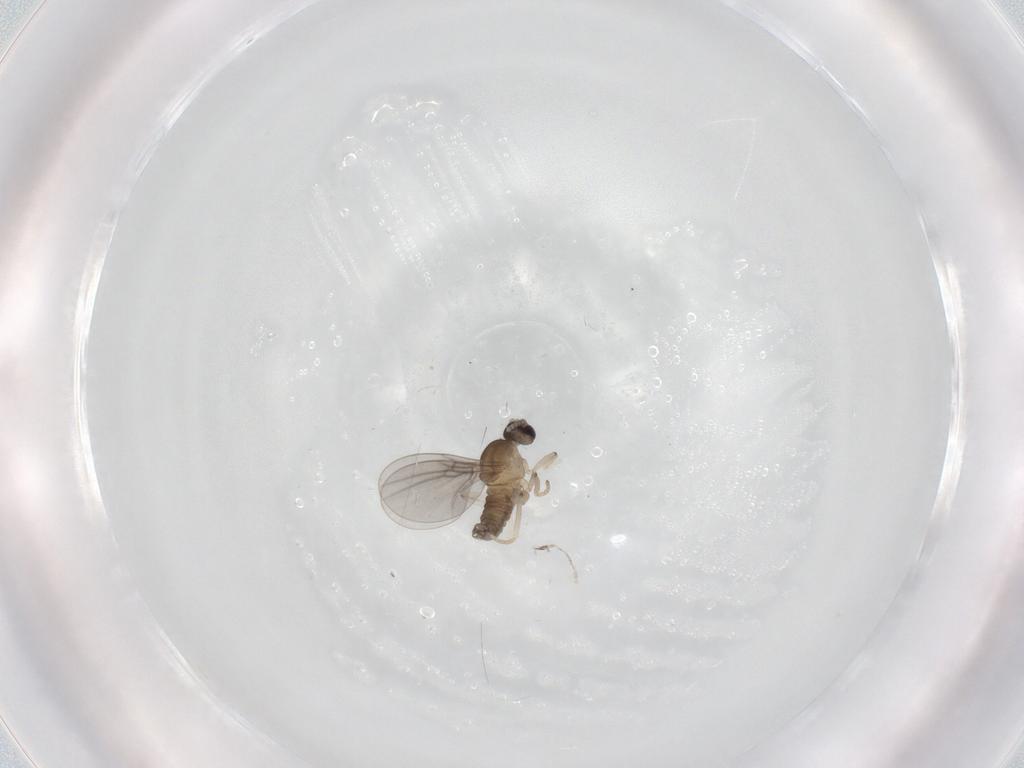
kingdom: Animalia
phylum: Arthropoda
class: Insecta
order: Diptera
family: Cecidomyiidae
